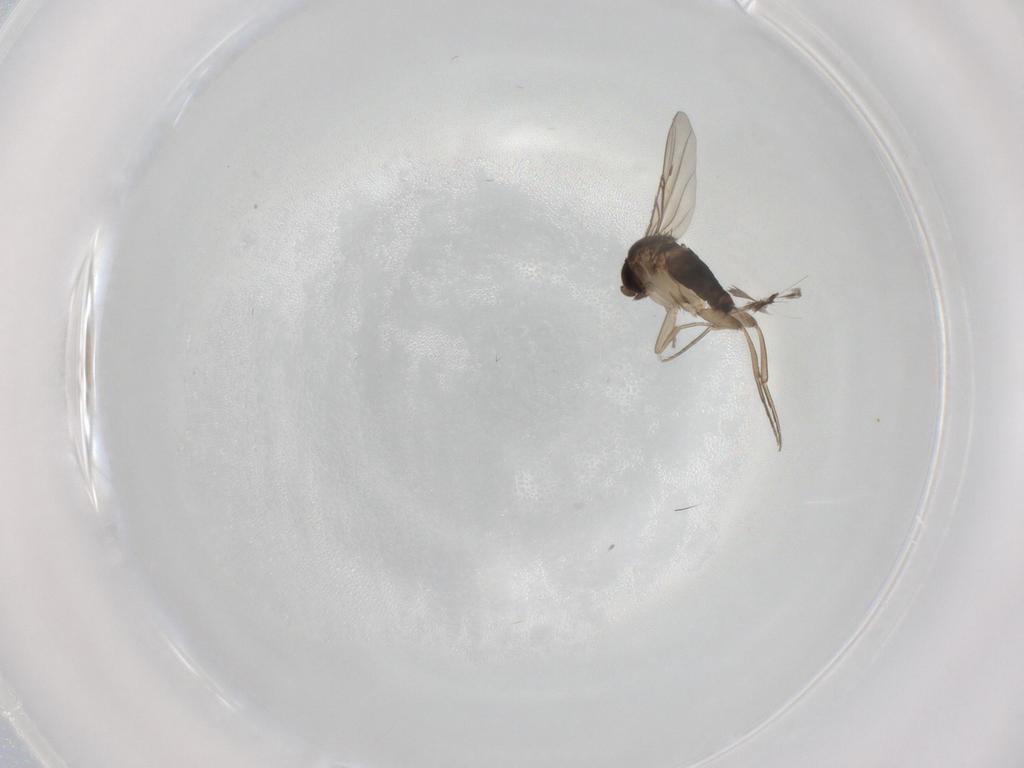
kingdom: Animalia
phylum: Arthropoda
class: Insecta
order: Diptera
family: Phoridae
